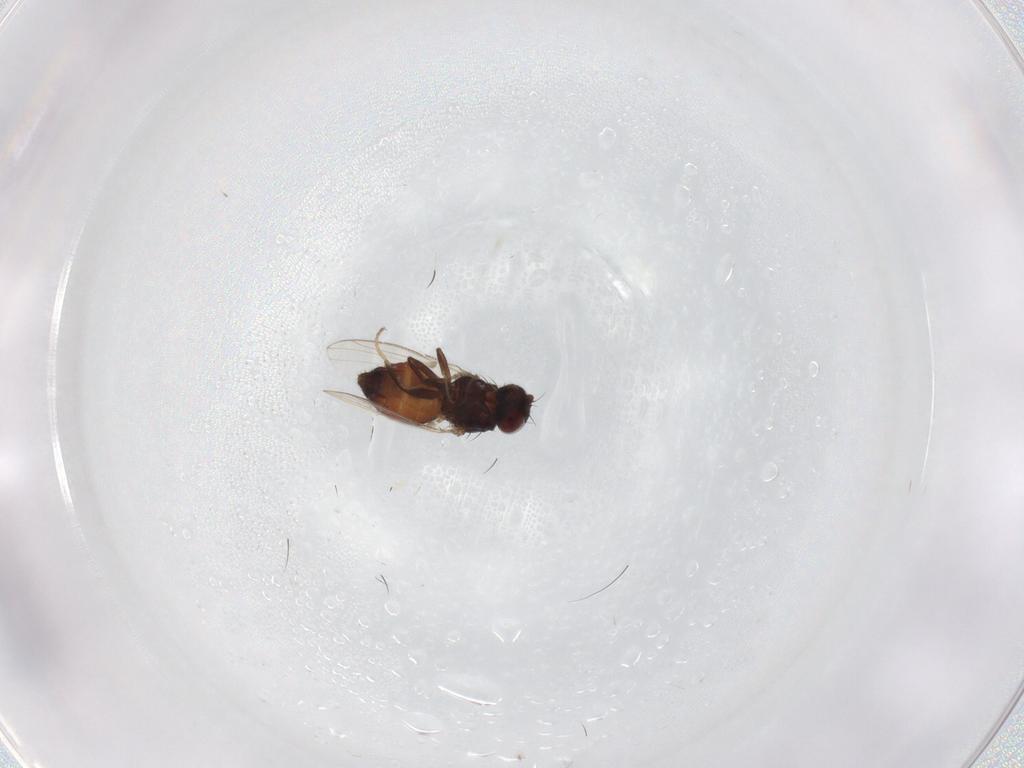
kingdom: Animalia
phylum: Arthropoda
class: Insecta
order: Diptera
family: Carnidae
